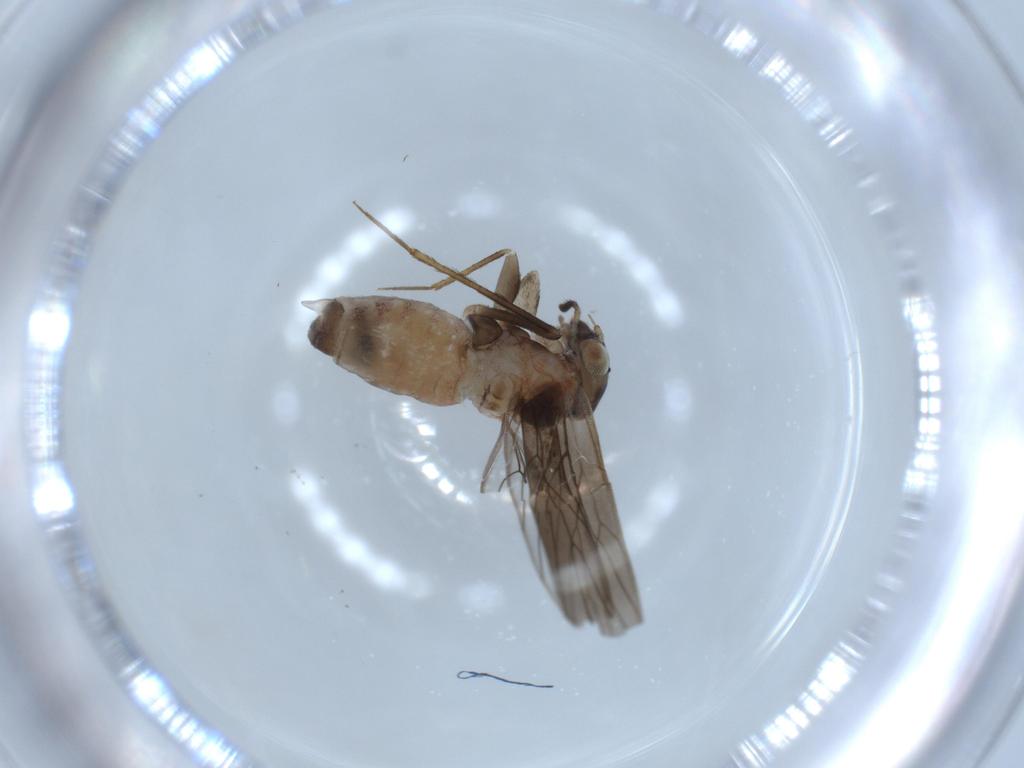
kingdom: Animalia
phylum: Arthropoda
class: Insecta
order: Psocodea
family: Lepidopsocidae
